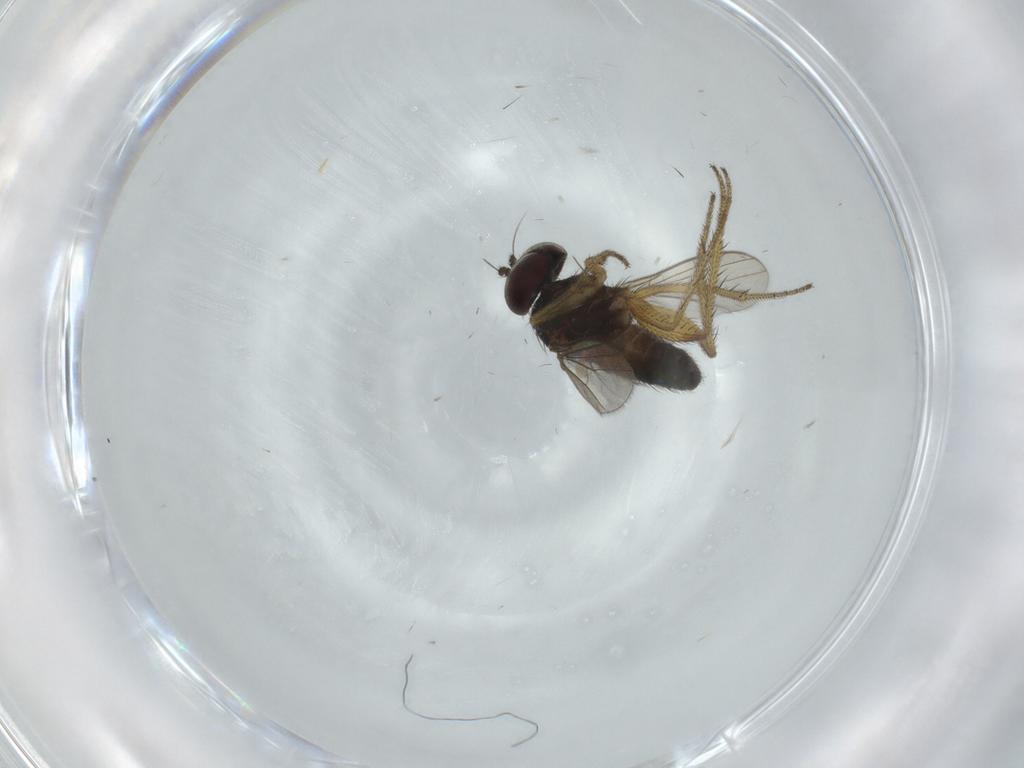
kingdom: Animalia
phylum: Arthropoda
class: Insecta
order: Diptera
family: Dolichopodidae
